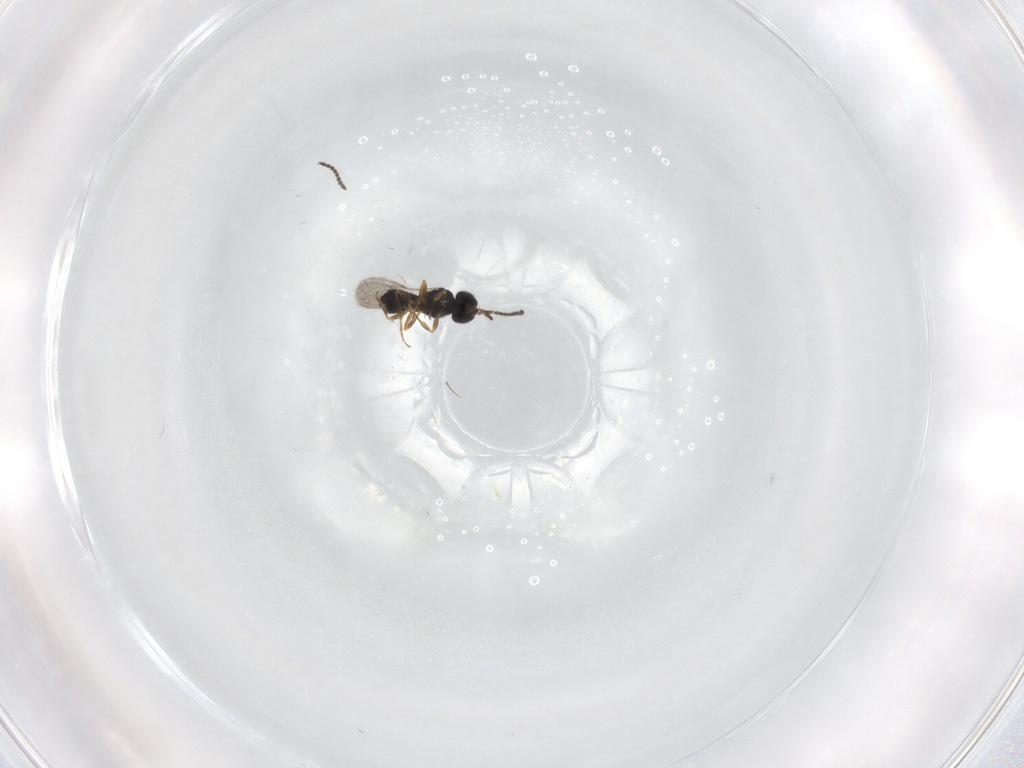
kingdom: Animalia
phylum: Arthropoda
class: Insecta
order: Hymenoptera
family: Scelionidae
